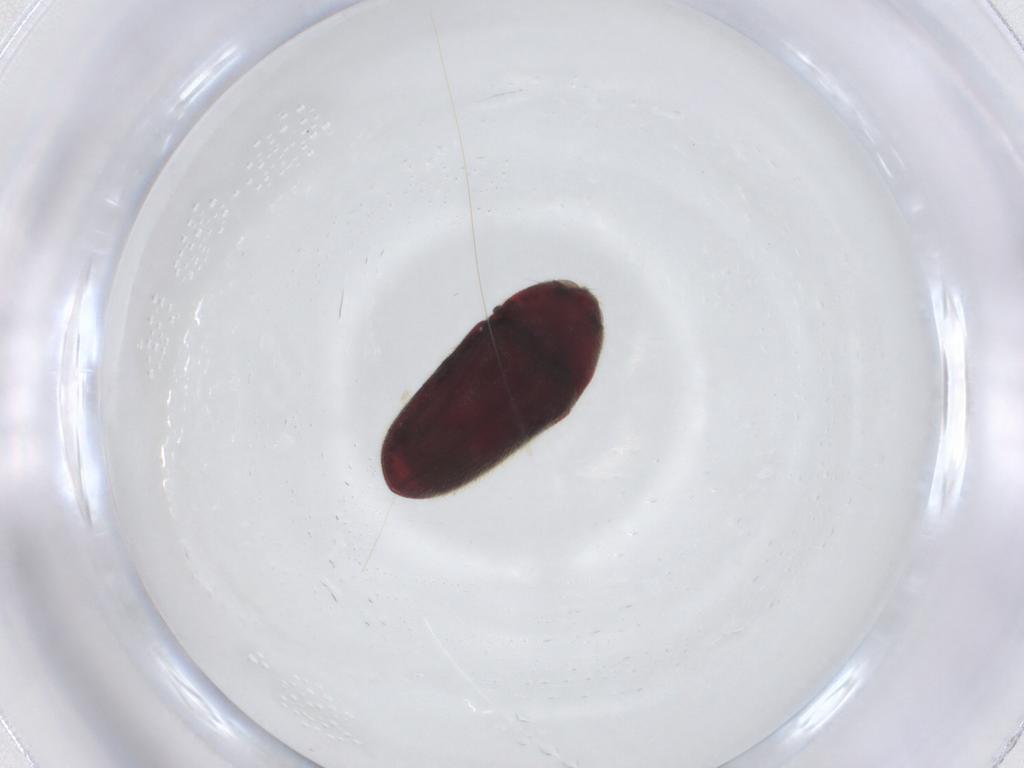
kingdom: Animalia
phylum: Arthropoda
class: Insecta
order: Coleoptera
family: Throscidae
